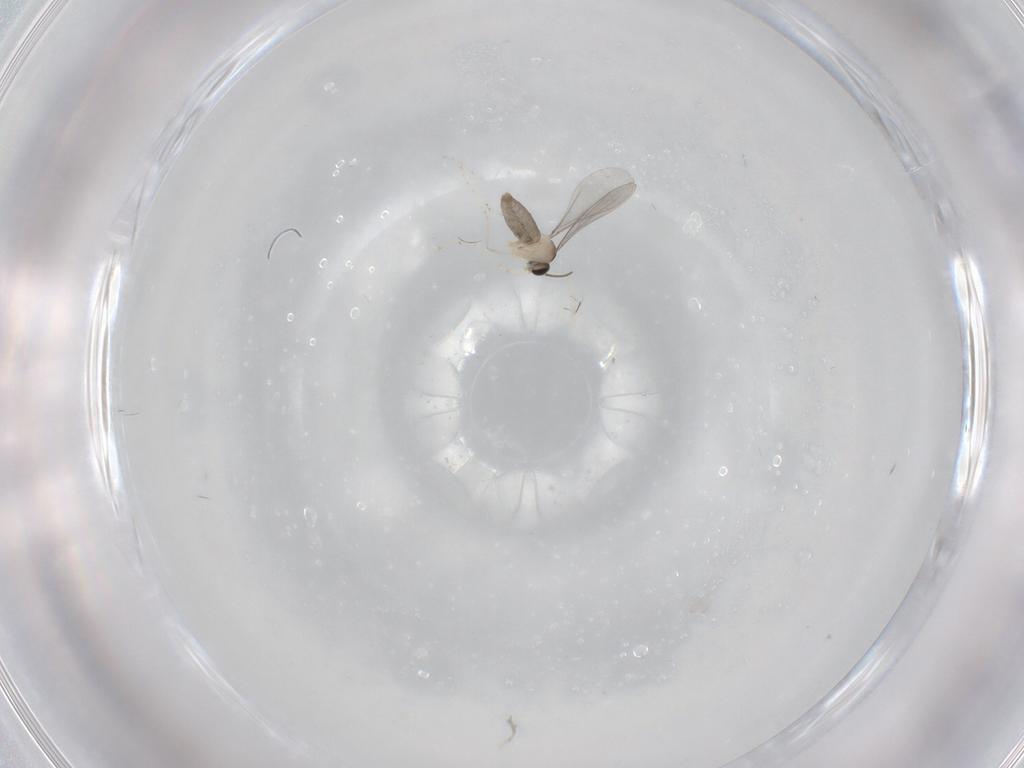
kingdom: Animalia
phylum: Arthropoda
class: Insecta
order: Diptera
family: Cecidomyiidae
